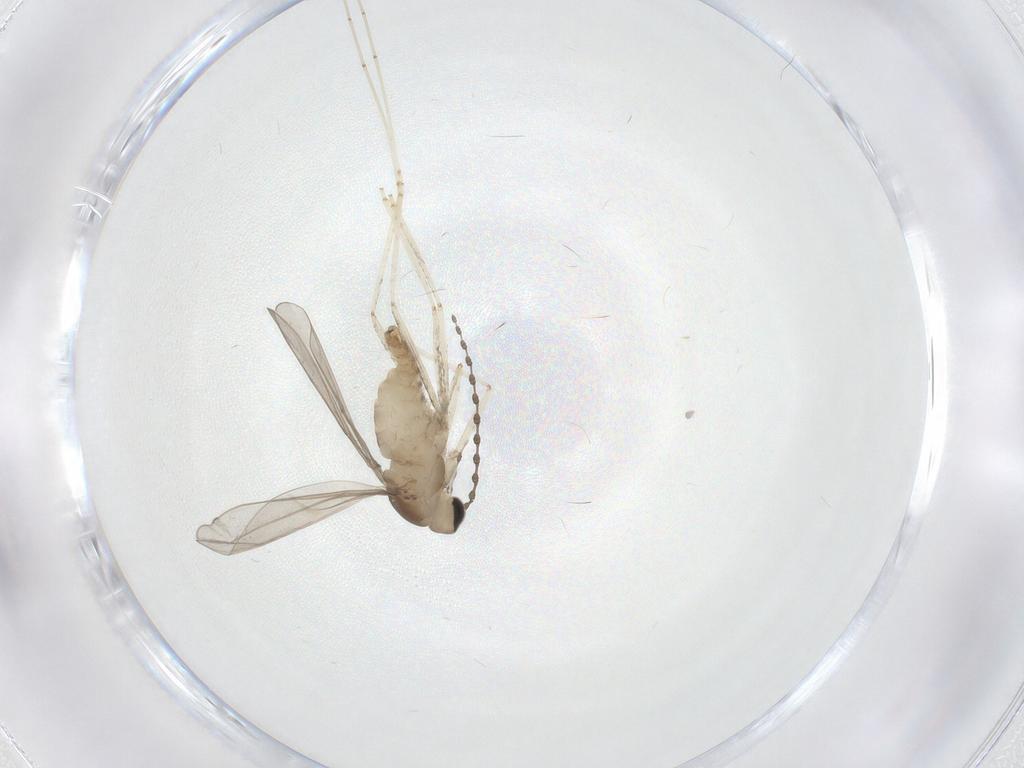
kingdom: Animalia
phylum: Arthropoda
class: Insecta
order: Diptera
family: Cecidomyiidae
